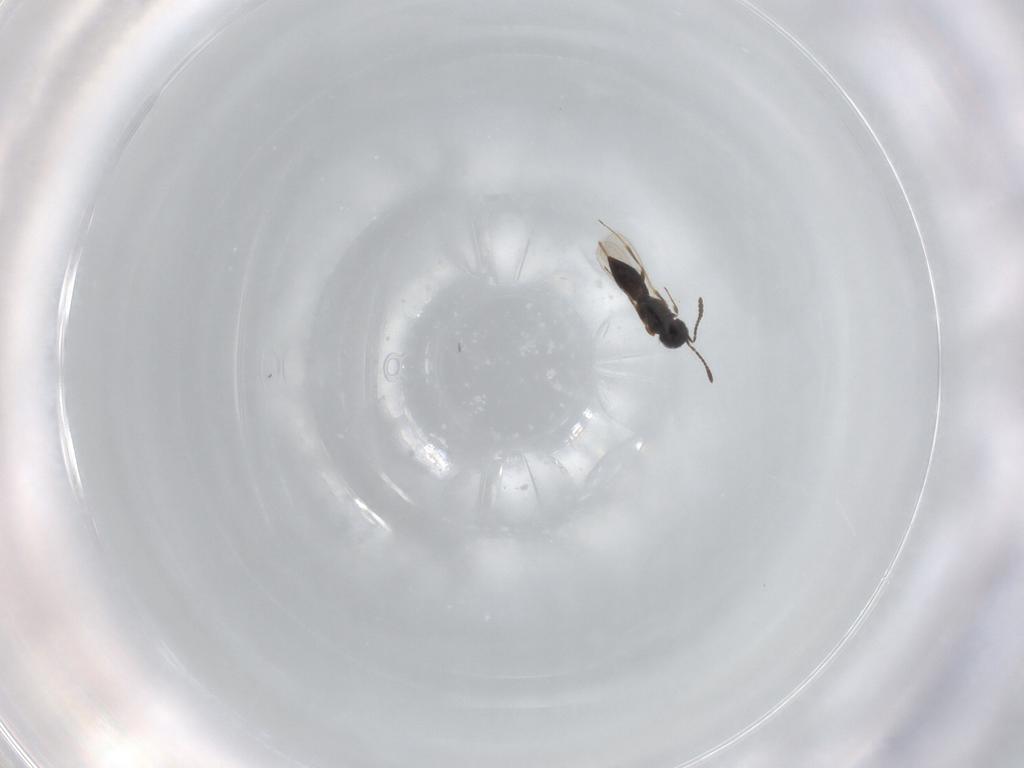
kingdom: Animalia
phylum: Arthropoda
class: Insecta
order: Hymenoptera
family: Scelionidae
